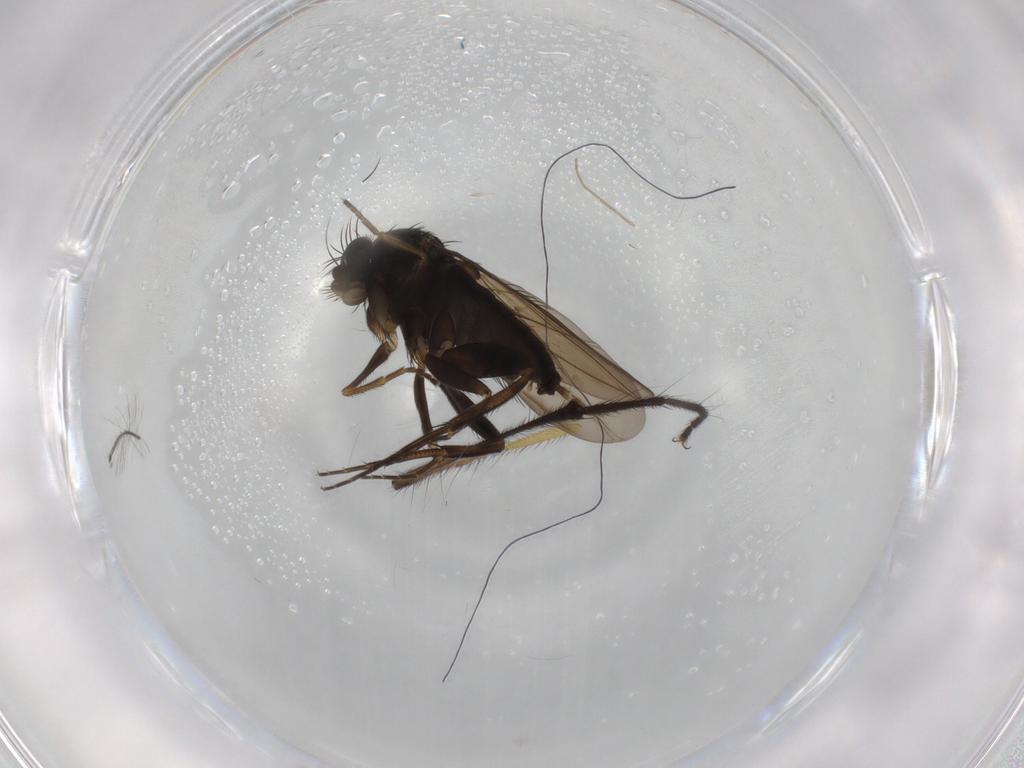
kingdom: Animalia
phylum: Arthropoda
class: Insecta
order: Diptera
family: Phoridae
